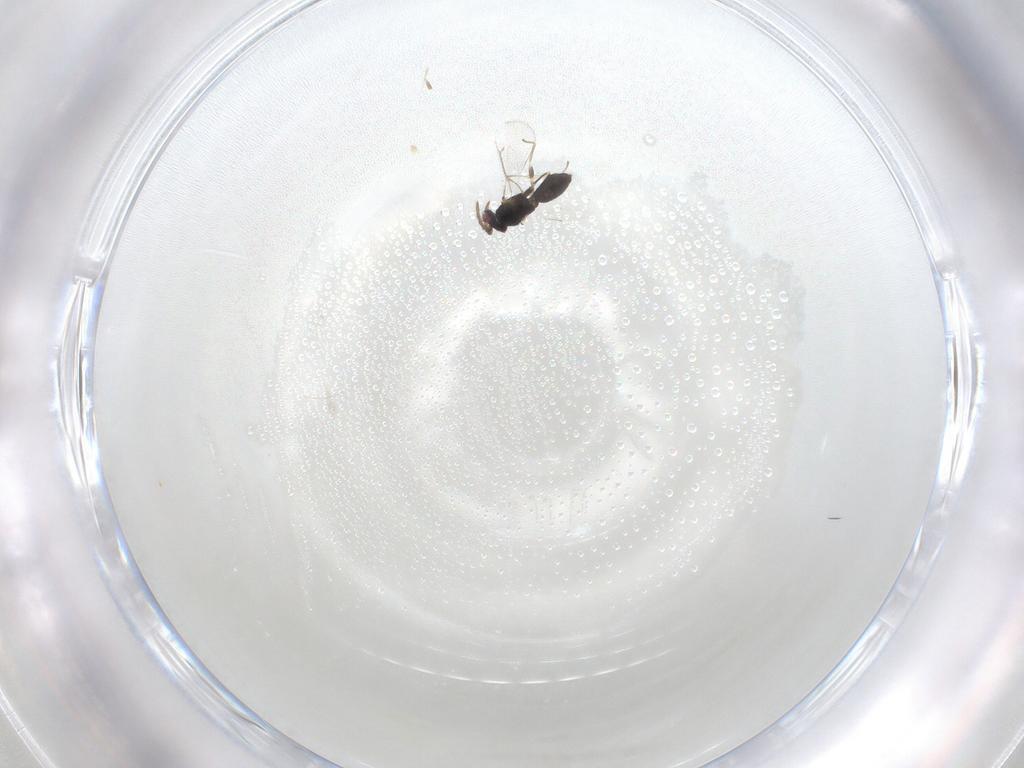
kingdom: Animalia
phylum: Arthropoda
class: Insecta
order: Hymenoptera
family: Eulophidae
